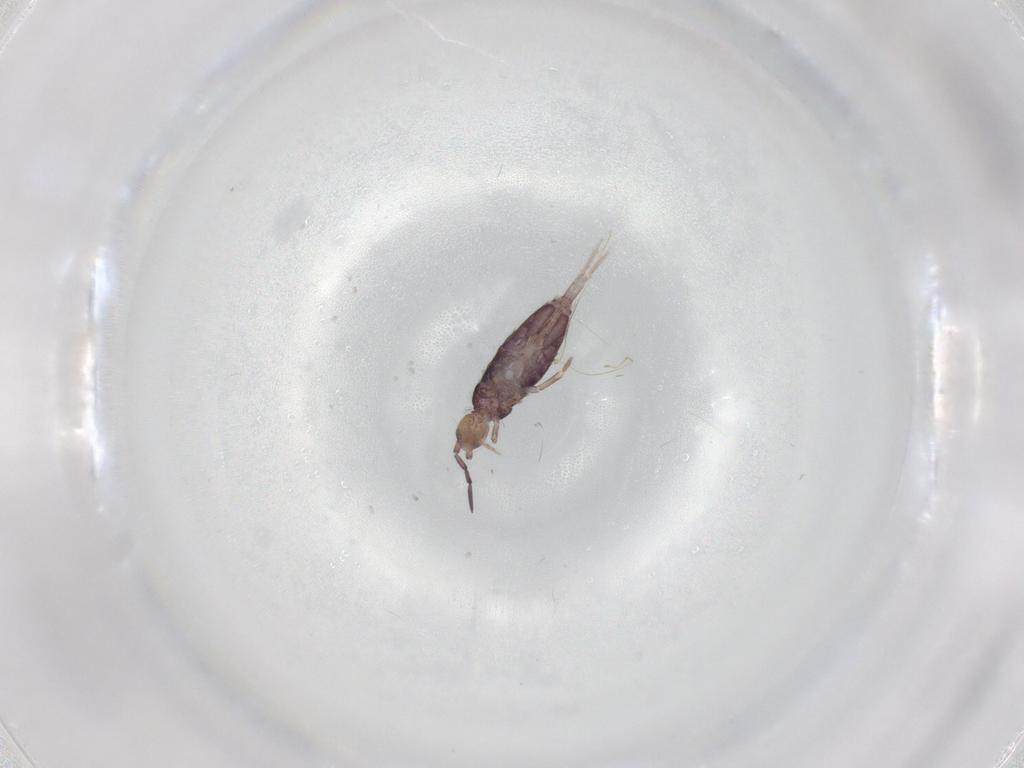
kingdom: Animalia
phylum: Arthropoda
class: Collembola
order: Entomobryomorpha
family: Entomobryidae
